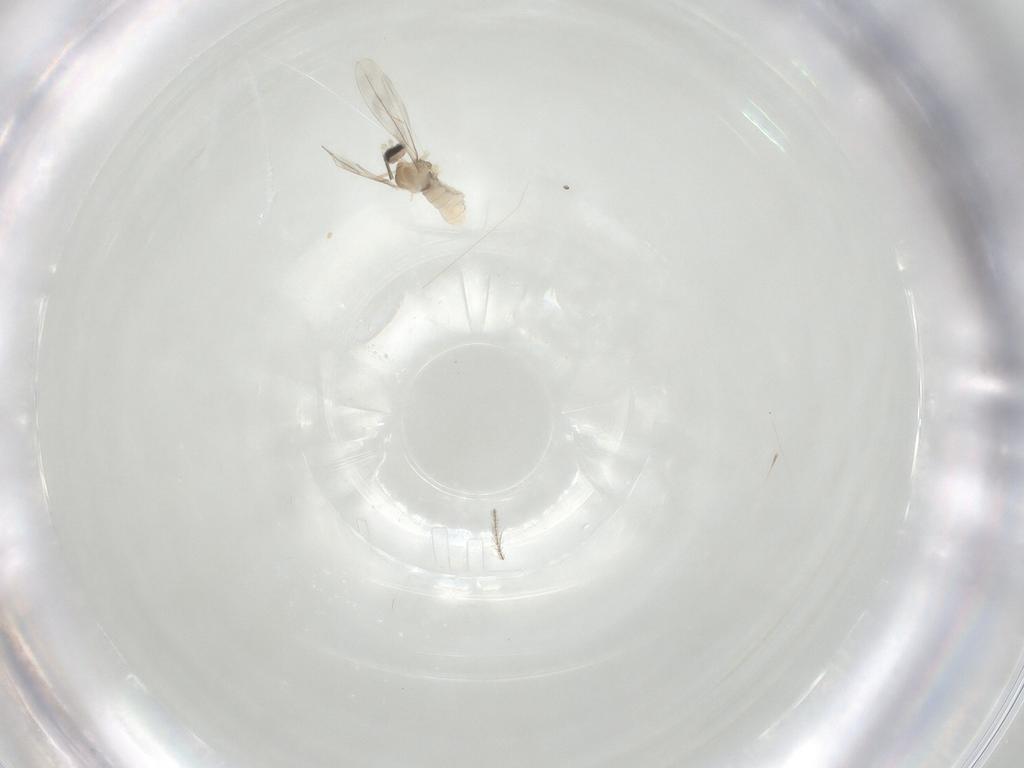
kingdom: Animalia
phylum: Arthropoda
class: Insecta
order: Diptera
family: Cecidomyiidae
